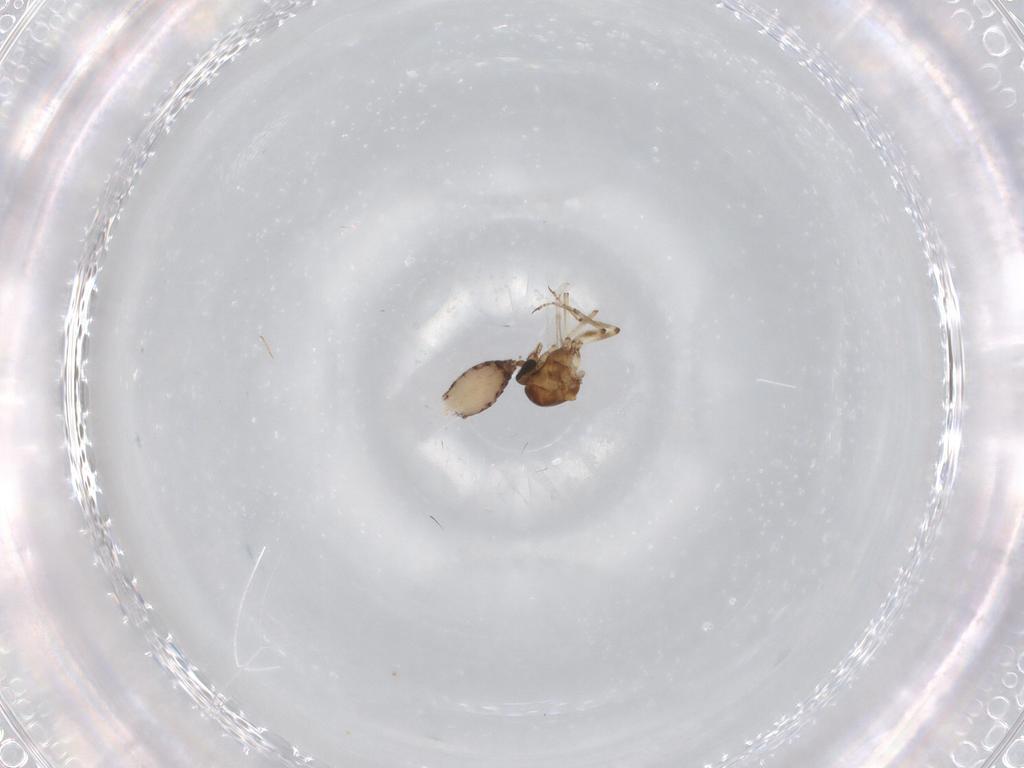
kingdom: Animalia
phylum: Arthropoda
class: Insecta
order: Diptera
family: Ceratopogonidae
